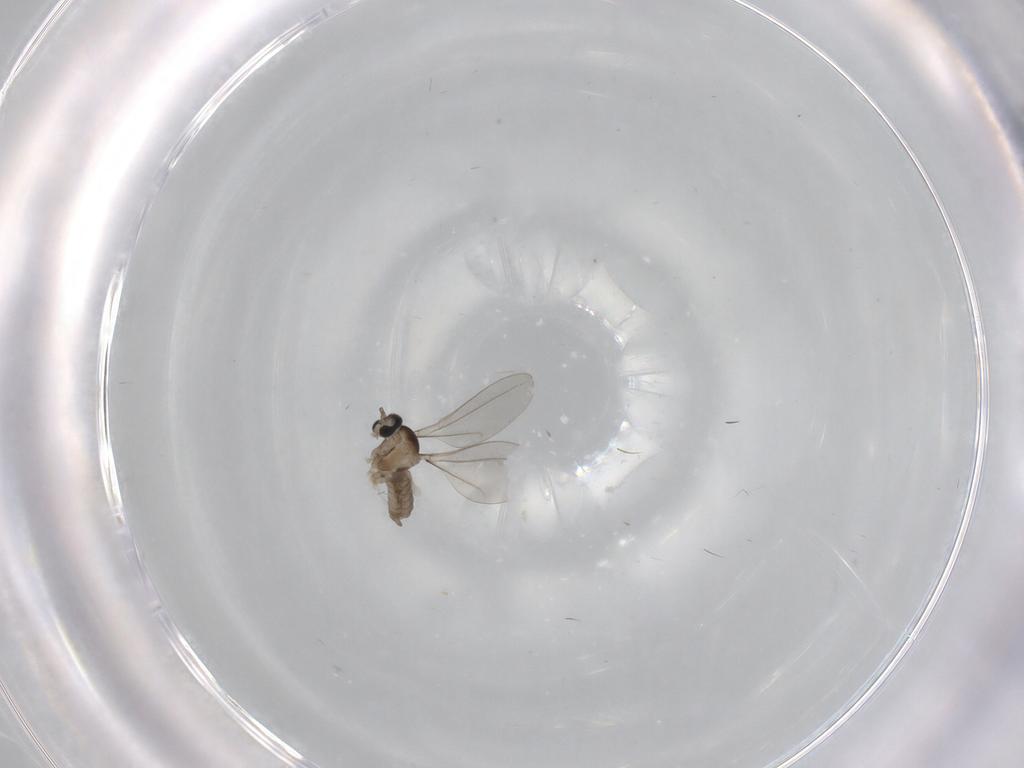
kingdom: Animalia
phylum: Arthropoda
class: Insecta
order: Diptera
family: Cecidomyiidae
